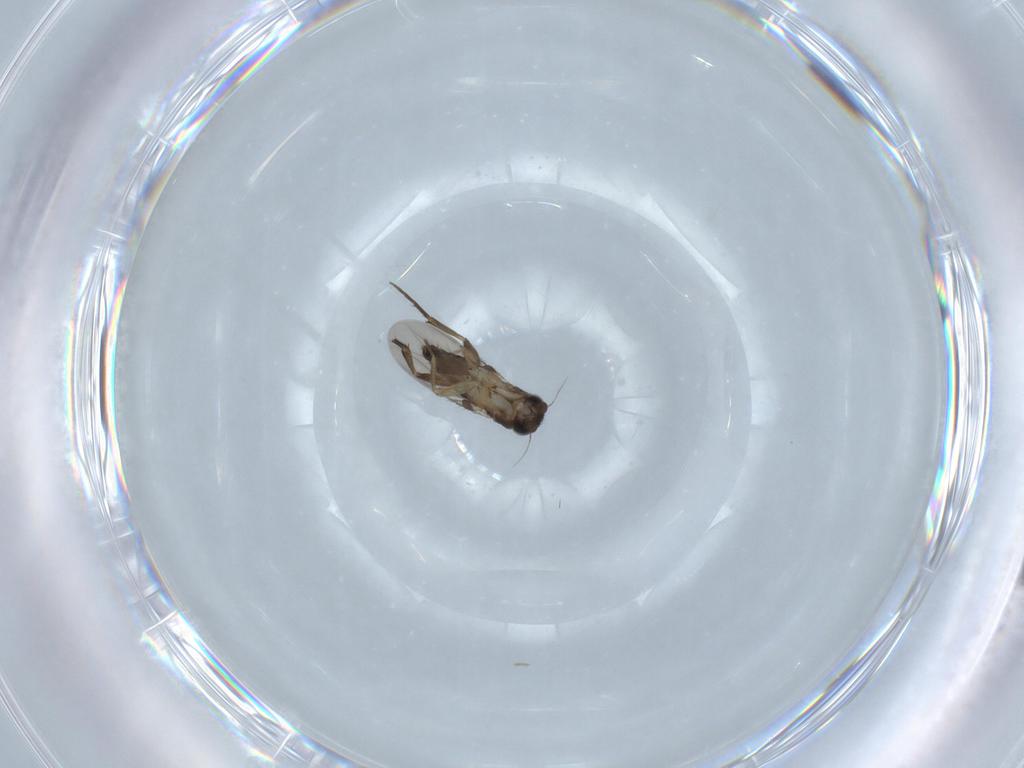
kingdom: Animalia
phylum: Arthropoda
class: Insecta
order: Diptera
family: Phoridae
